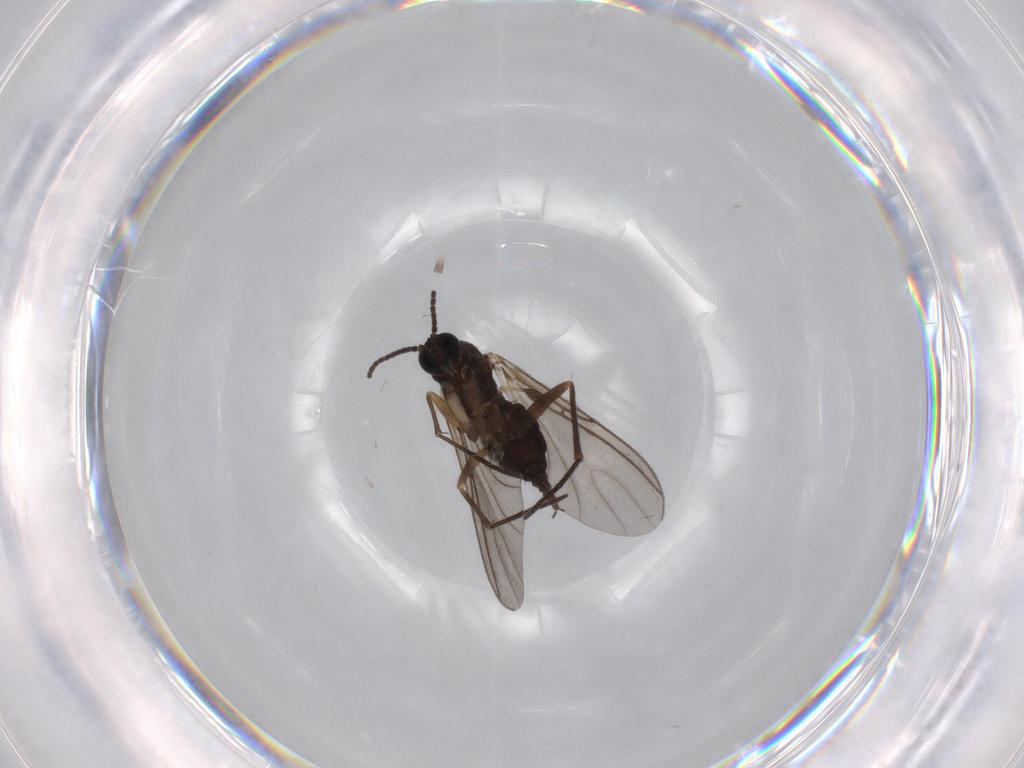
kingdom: Animalia
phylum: Arthropoda
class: Insecta
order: Diptera
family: Sciaridae
